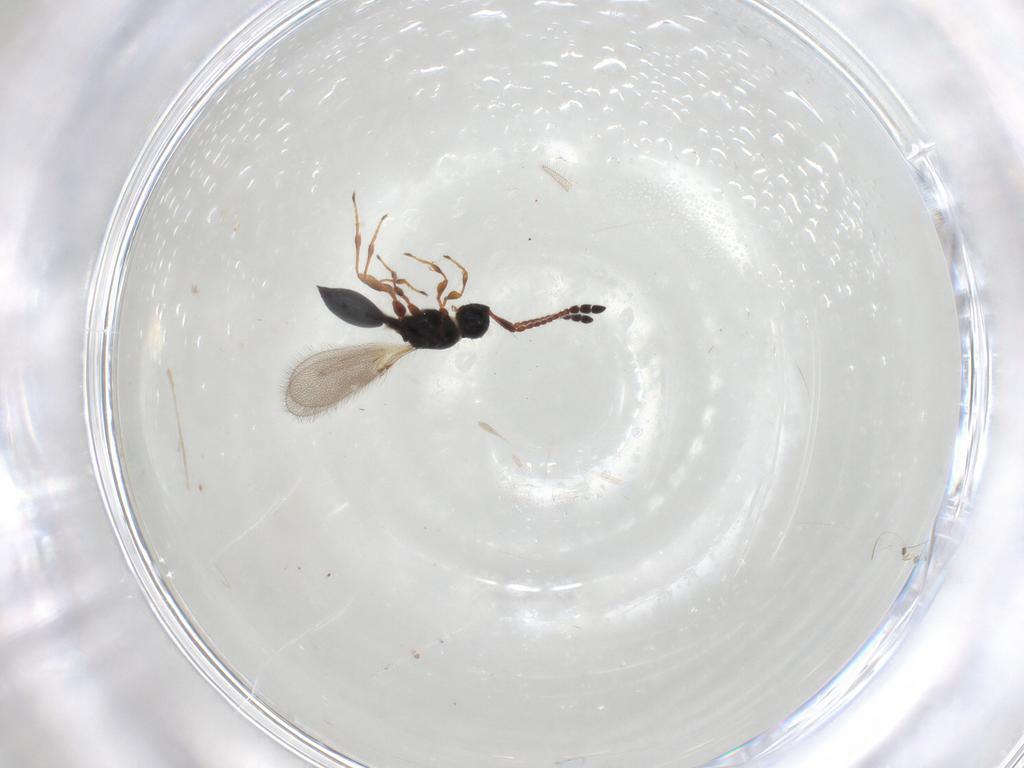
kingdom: Animalia
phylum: Arthropoda
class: Insecta
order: Hymenoptera
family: Diapriidae
